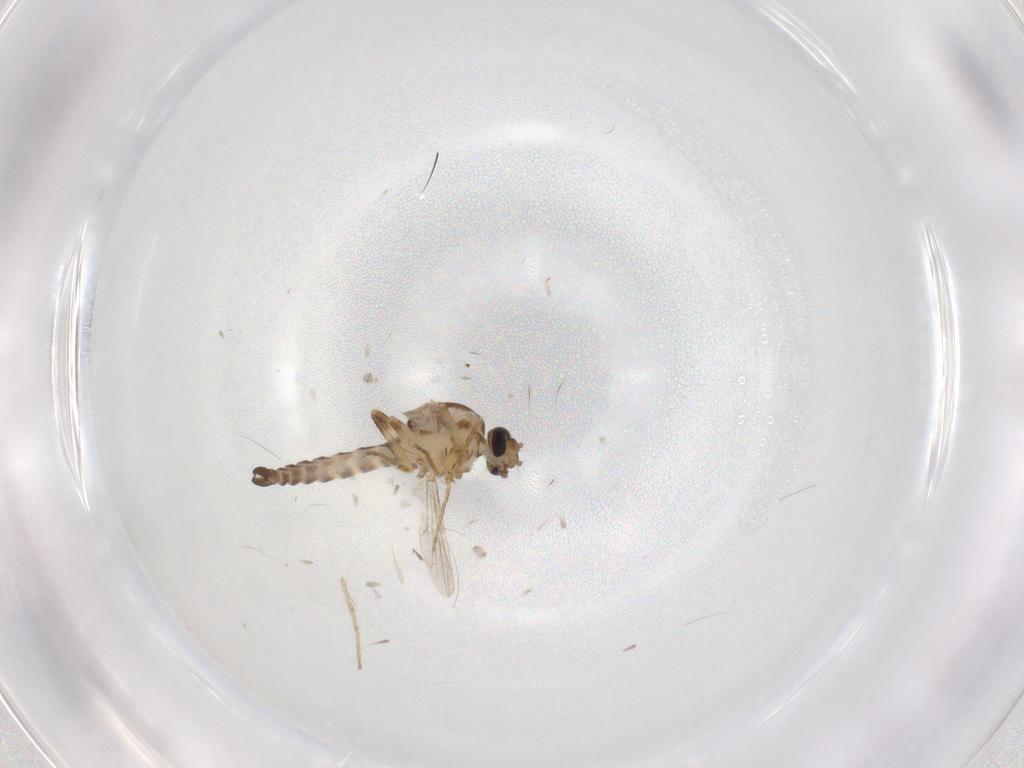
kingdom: Animalia
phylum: Arthropoda
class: Insecta
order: Diptera
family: Ceratopogonidae
